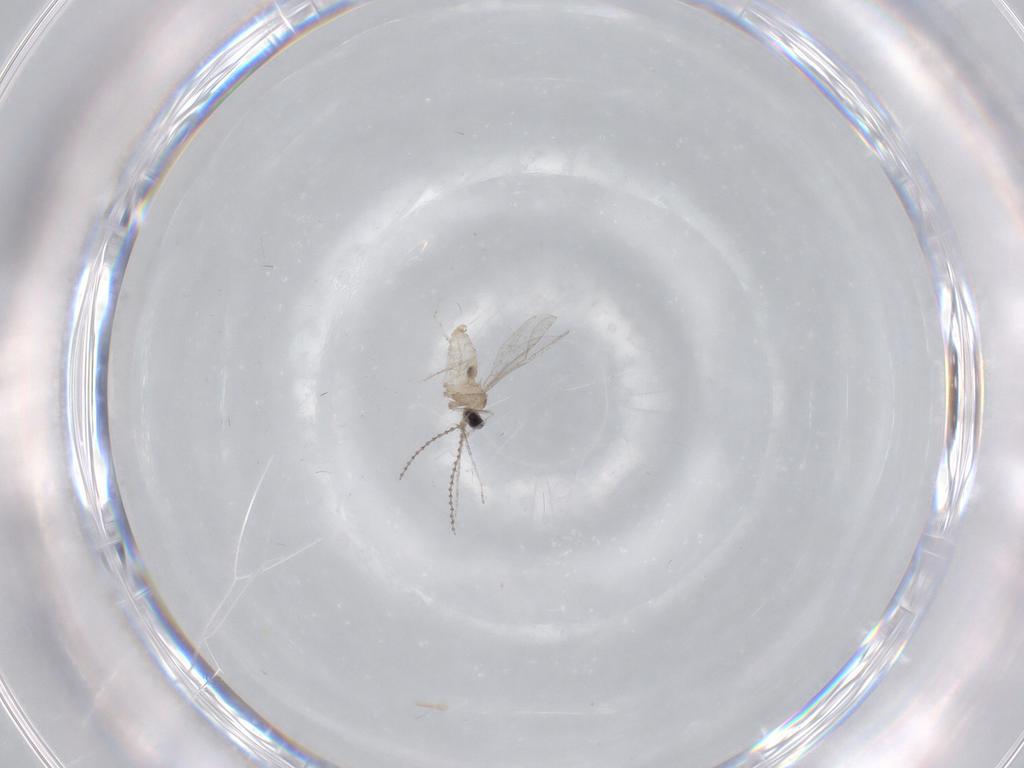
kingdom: Animalia
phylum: Arthropoda
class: Insecta
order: Diptera
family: Cecidomyiidae
